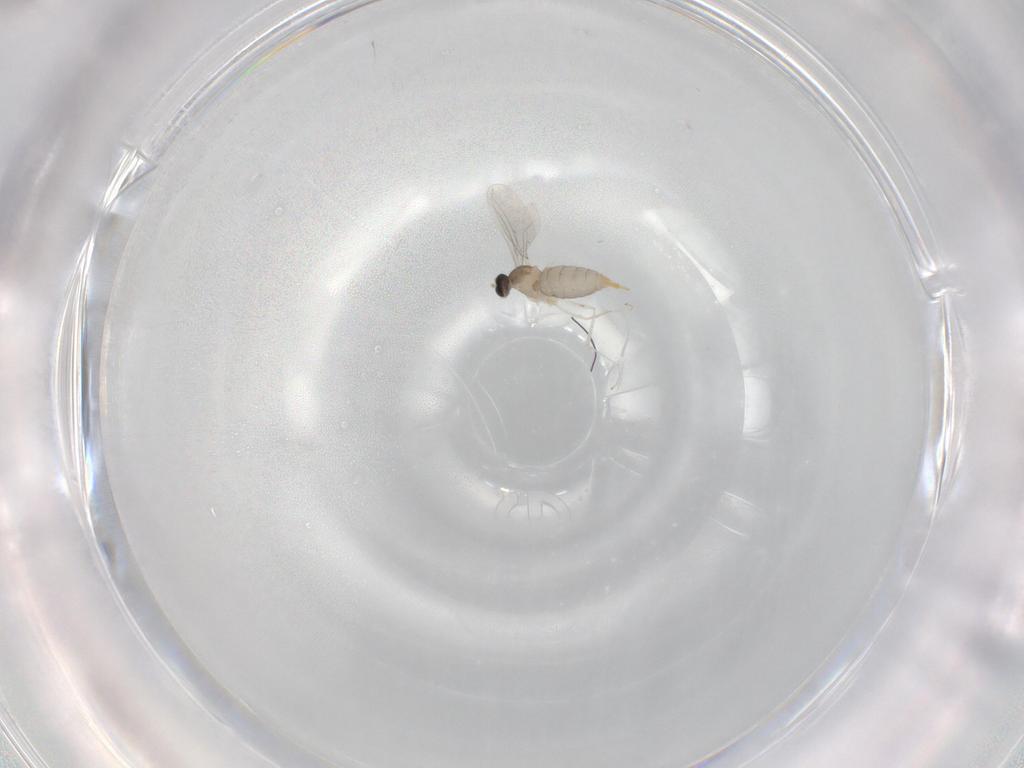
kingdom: Animalia
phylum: Arthropoda
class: Insecta
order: Diptera
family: Cecidomyiidae
